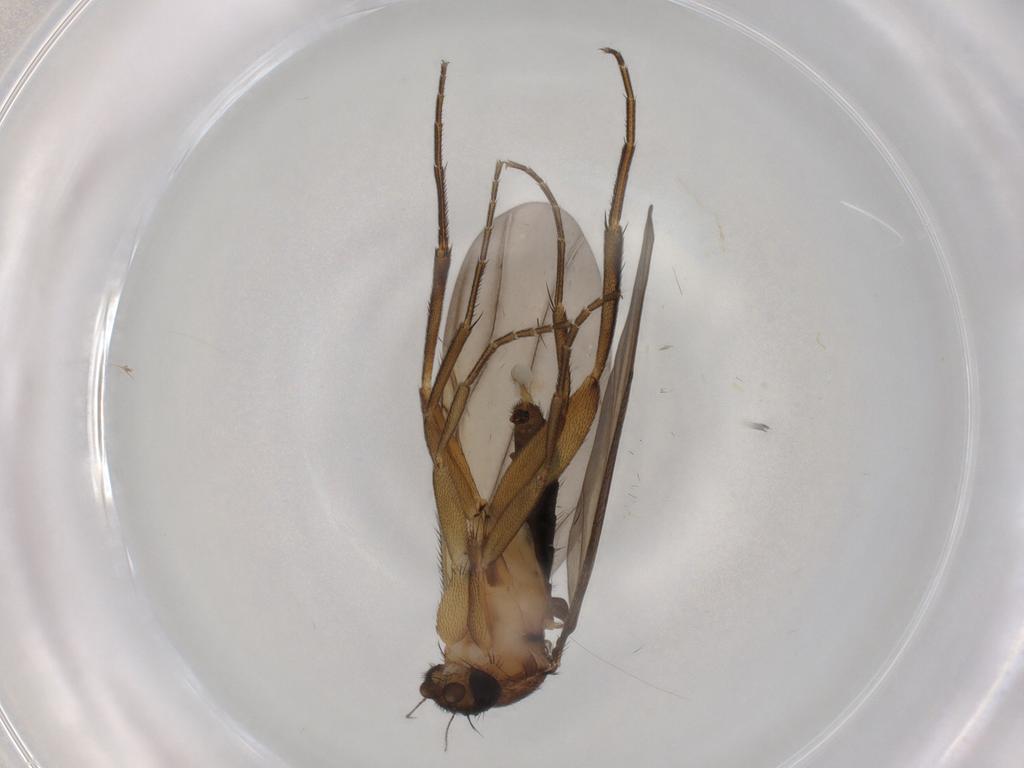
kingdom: Animalia
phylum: Arthropoda
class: Insecta
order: Diptera
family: Phoridae
